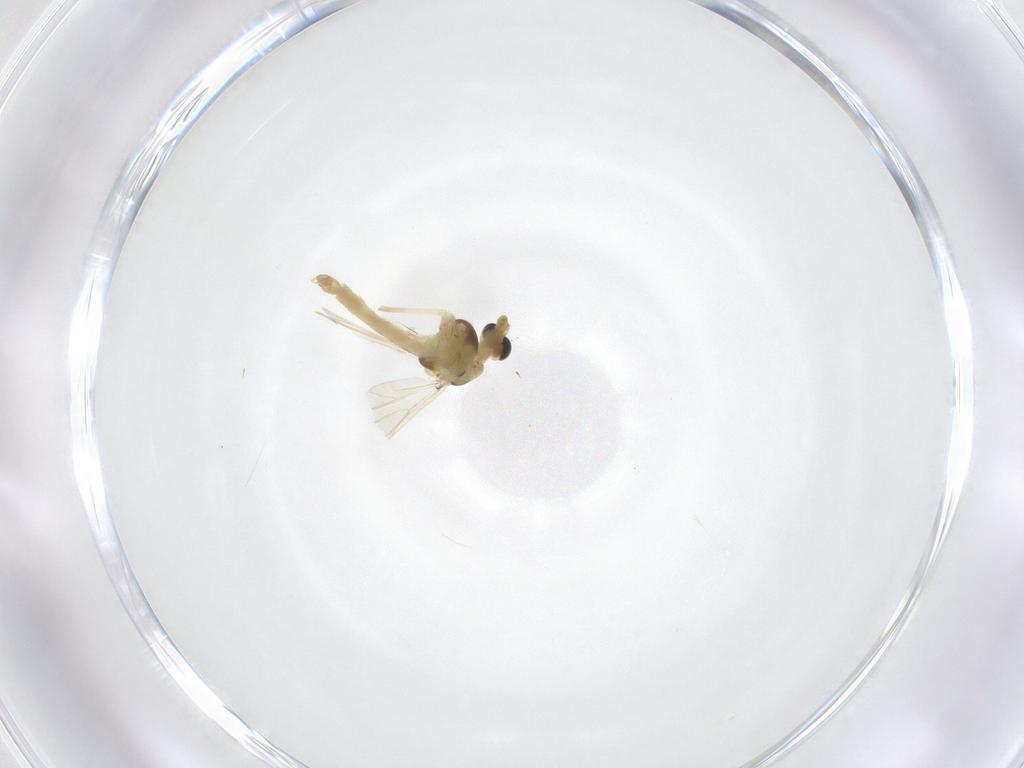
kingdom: Animalia
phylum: Arthropoda
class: Insecta
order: Diptera
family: Chironomidae
